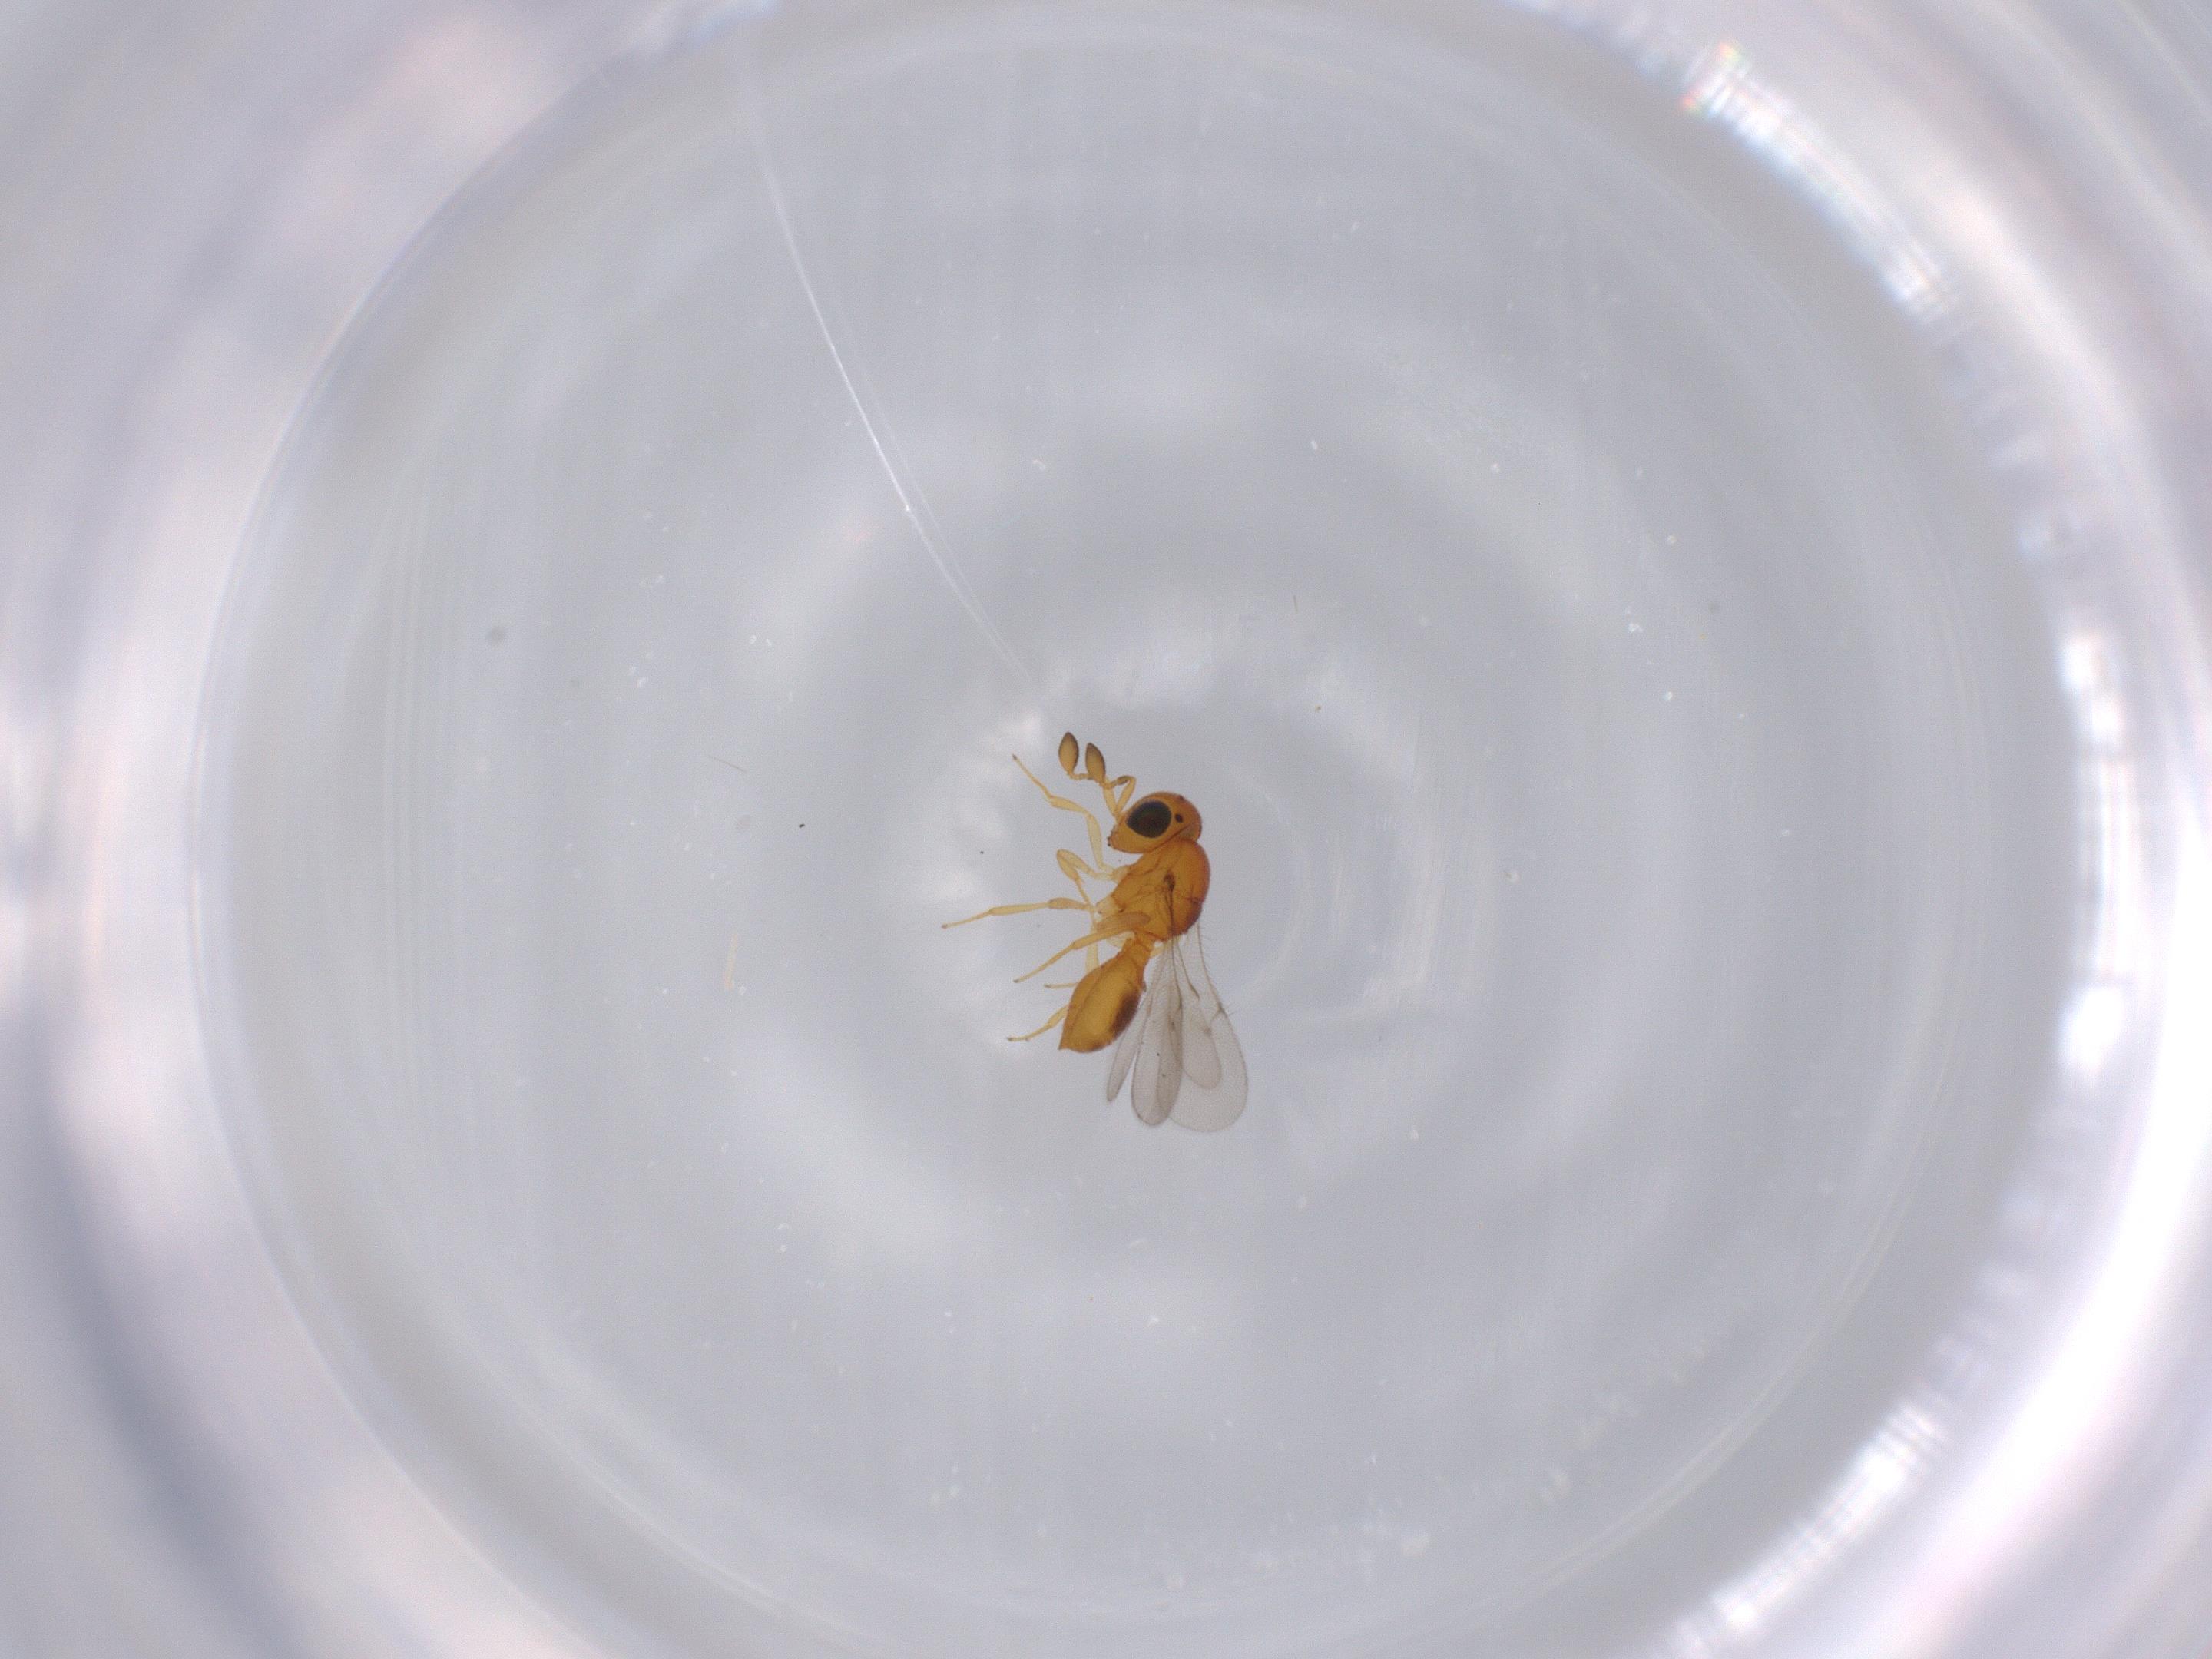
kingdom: Animalia
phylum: Arthropoda
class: Insecta
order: Hymenoptera
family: Scelionidae
